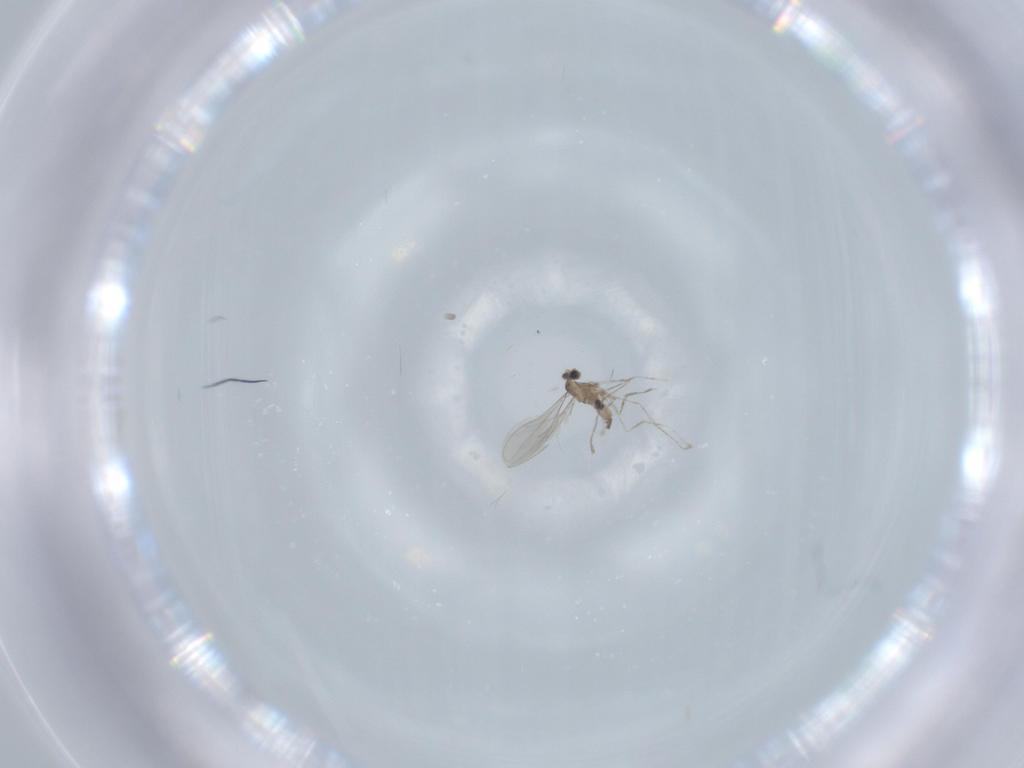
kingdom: Animalia
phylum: Arthropoda
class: Insecta
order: Diptera
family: Cecidomyiidae
